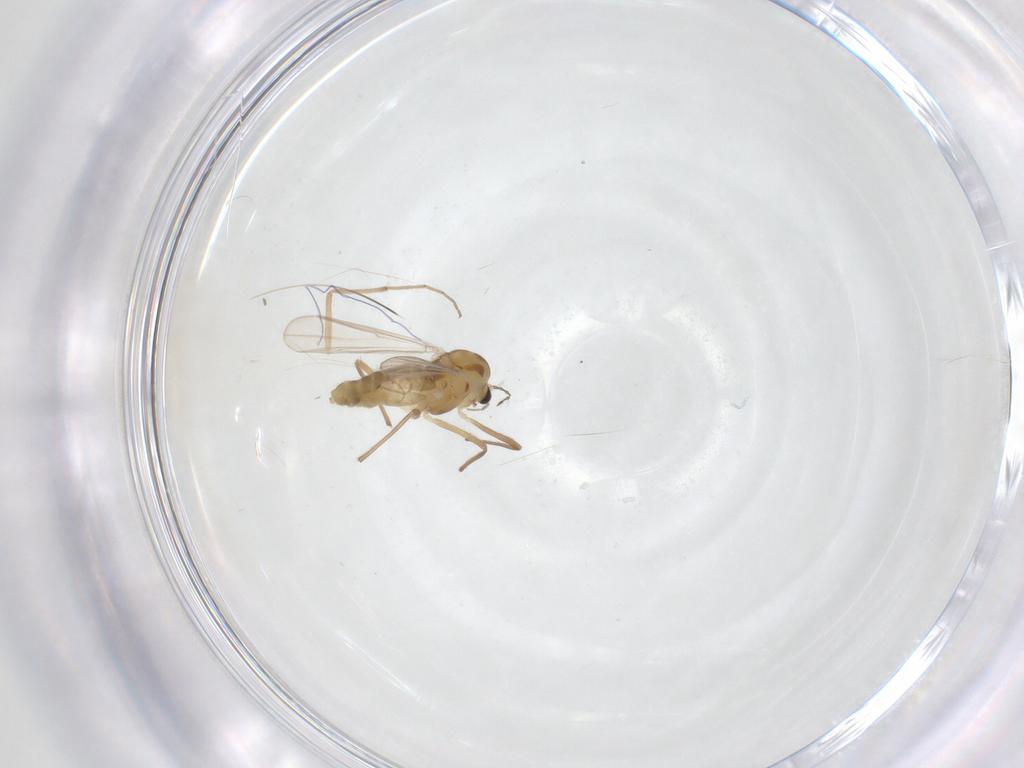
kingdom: Animalia
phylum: Arthropoda
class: Insecta
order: Diptera
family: Chironomidae
